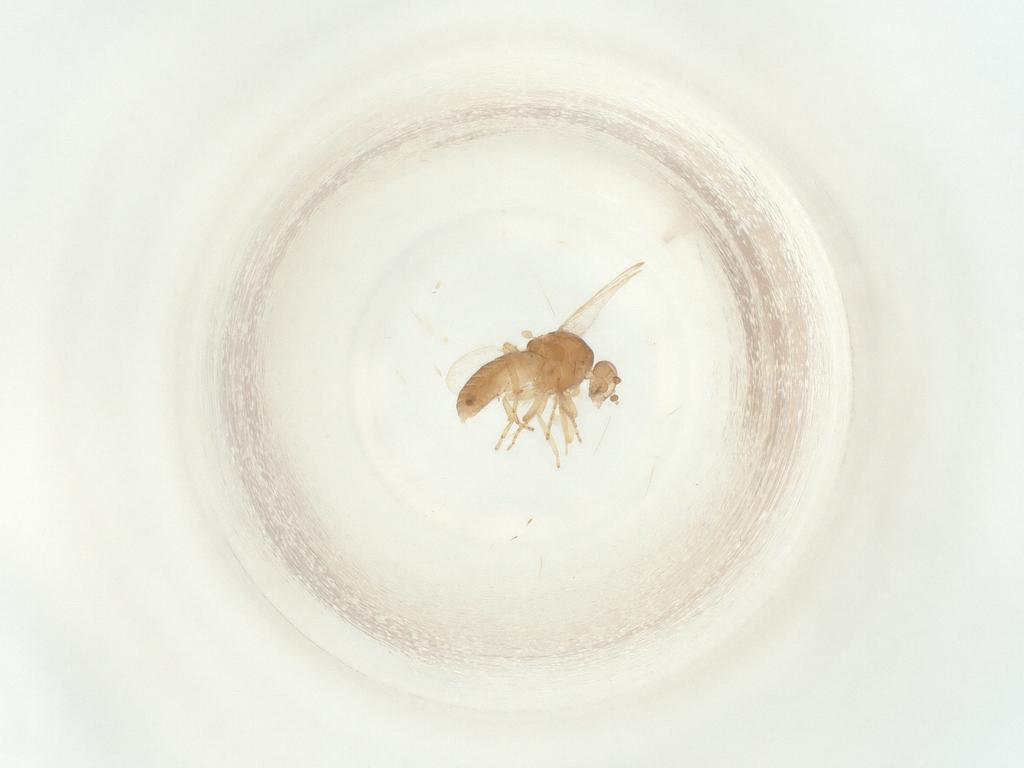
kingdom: Animalia
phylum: Arthropoda
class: Insecta
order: Diptera
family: Ceratopogonidae
